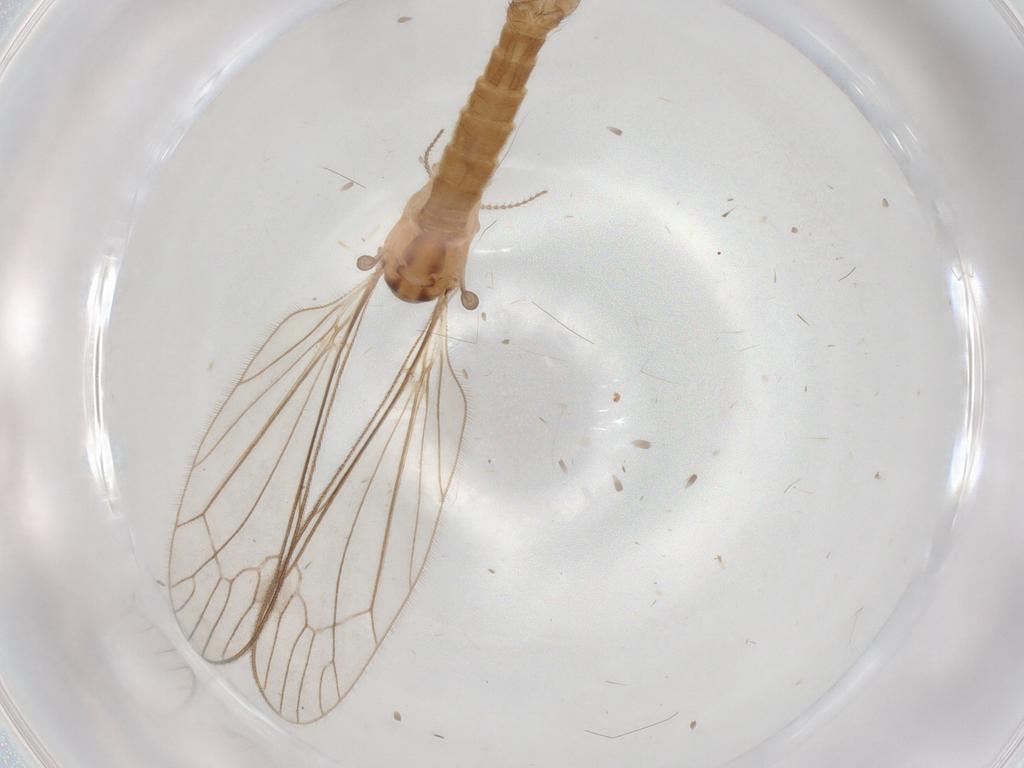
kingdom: Animalia
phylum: Arthropoda
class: Insecta
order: Diptera
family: Ceratopogonidae
